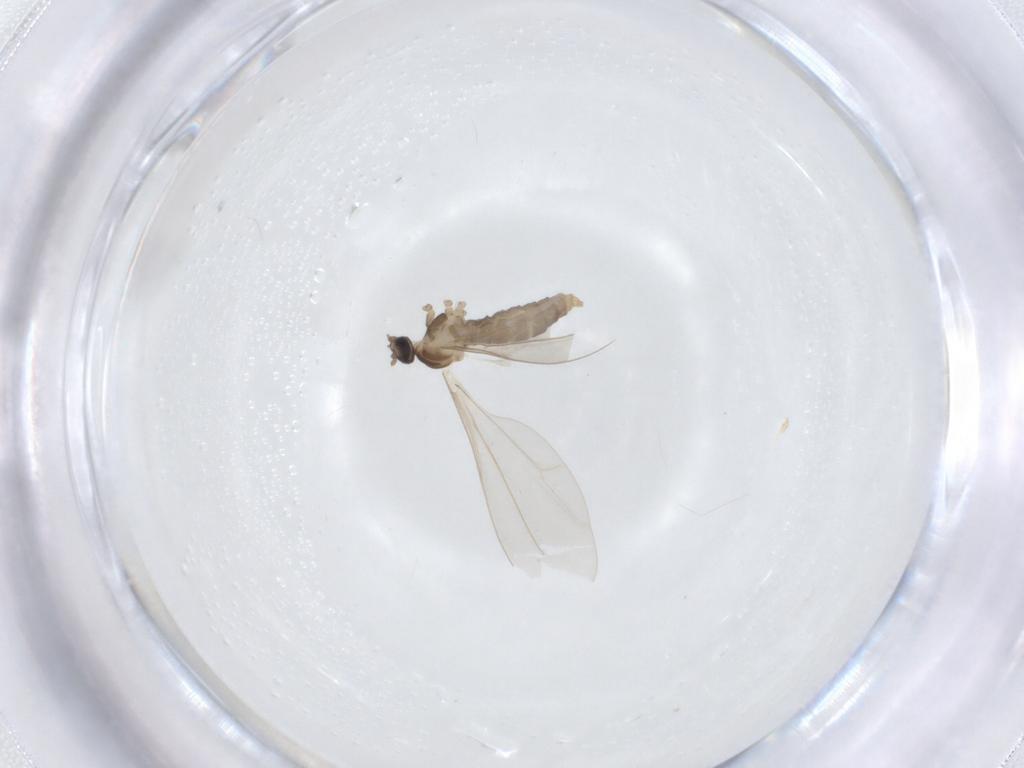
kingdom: Animalia
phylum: Arthropoda
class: Insecta
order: Diptera
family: Cecidomyiidae
